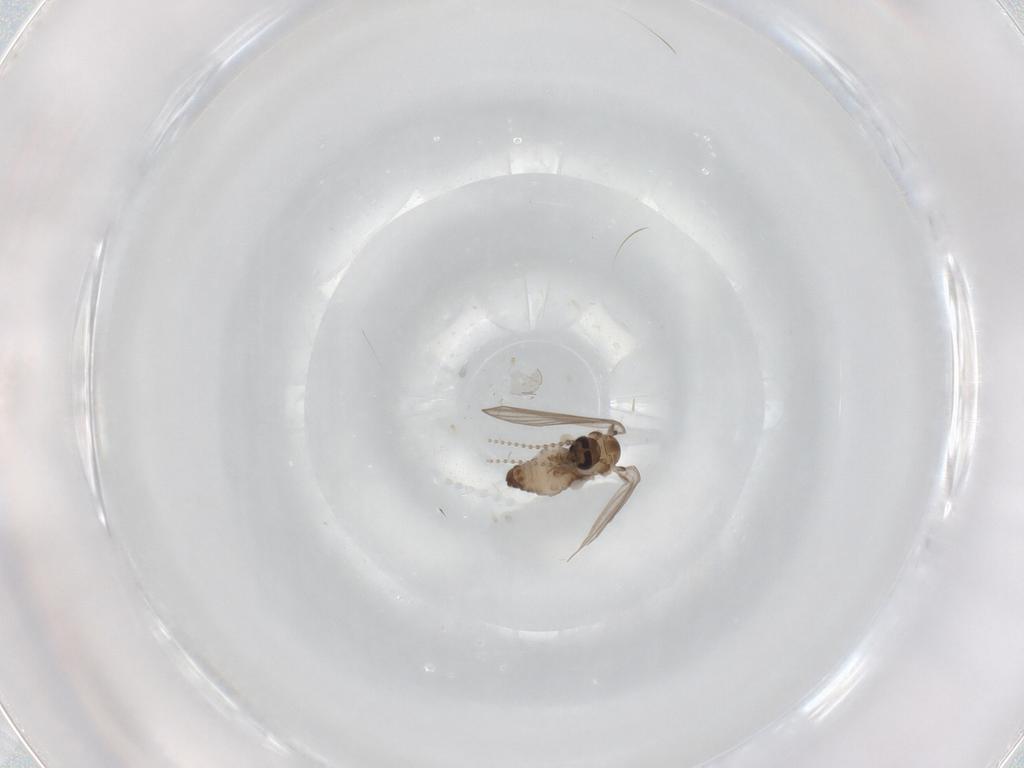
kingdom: Animalia
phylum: Arthropoda
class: Insecta
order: Diptera
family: Psychodidae
